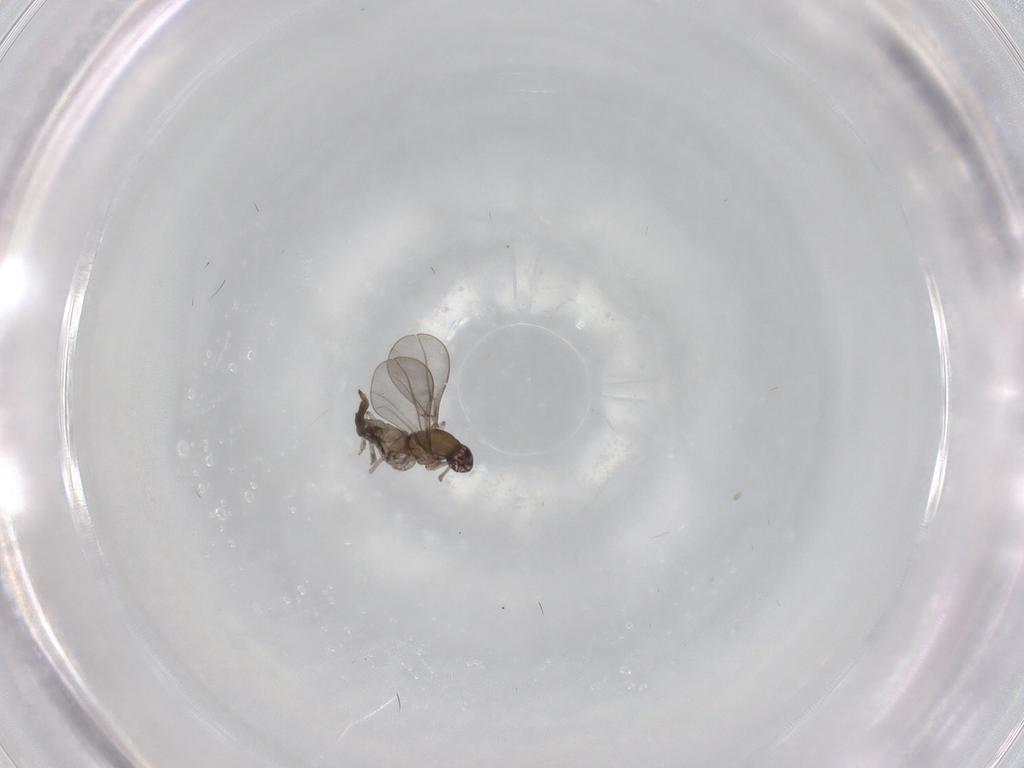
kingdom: Animalia
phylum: Arthropoda
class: Insecta
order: Diptera
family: Cecidomyiidae
